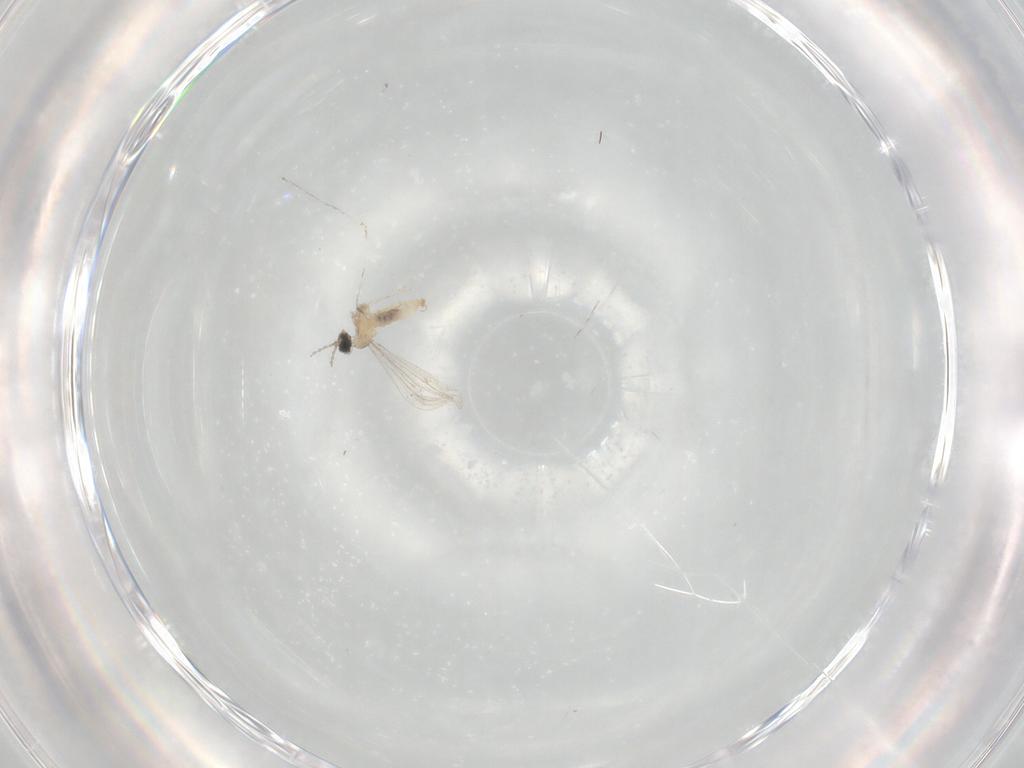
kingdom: Animalia
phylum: Arthropoda
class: Insecta
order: Diptera
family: Cecidomyiidae
